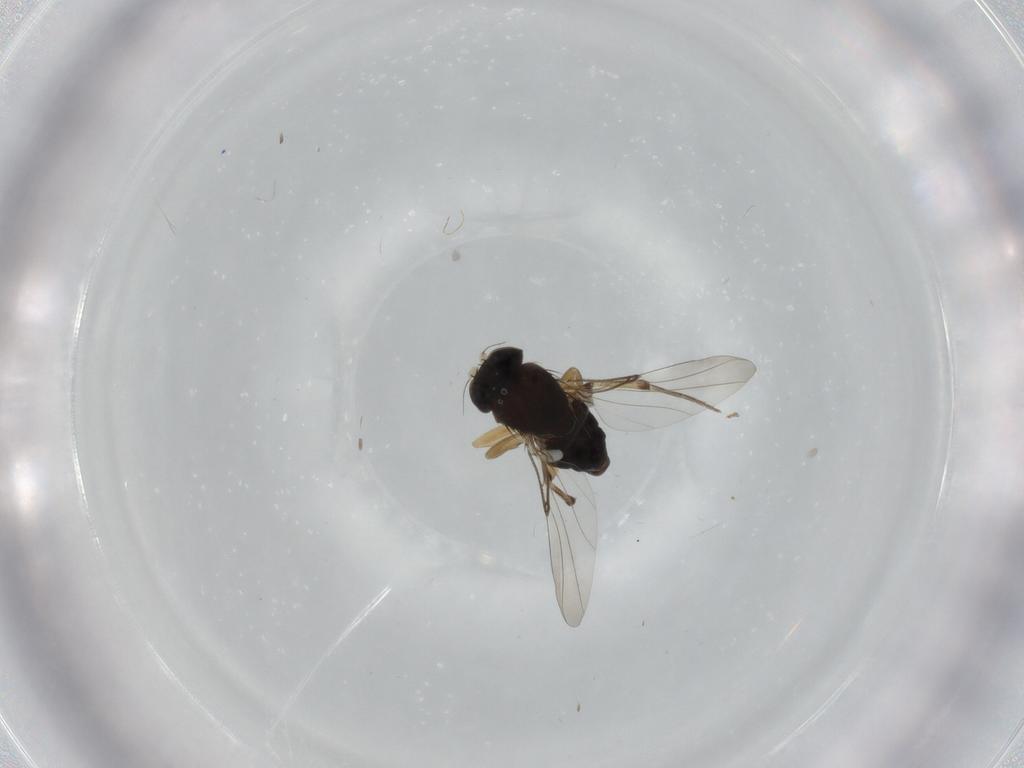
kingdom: Animalia
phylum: Arthropoda
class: Insecta
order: Diptera
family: Phoridae
